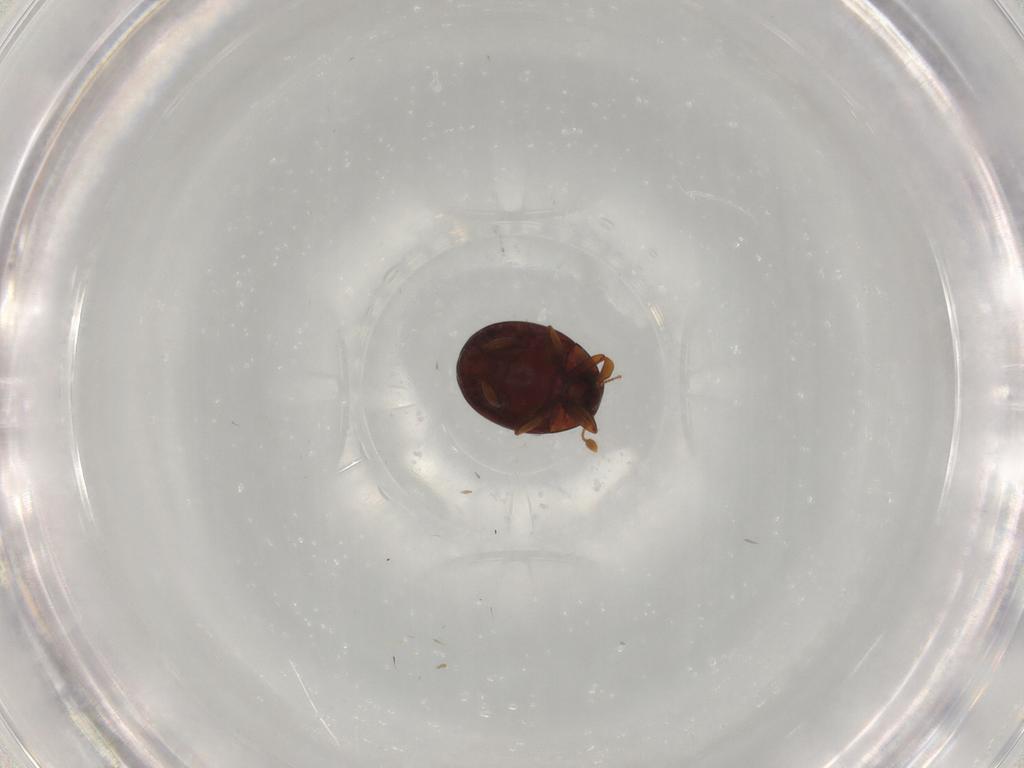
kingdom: Animalia
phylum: Arthropoda
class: Insecta
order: Coleoptera
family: Histeridae
